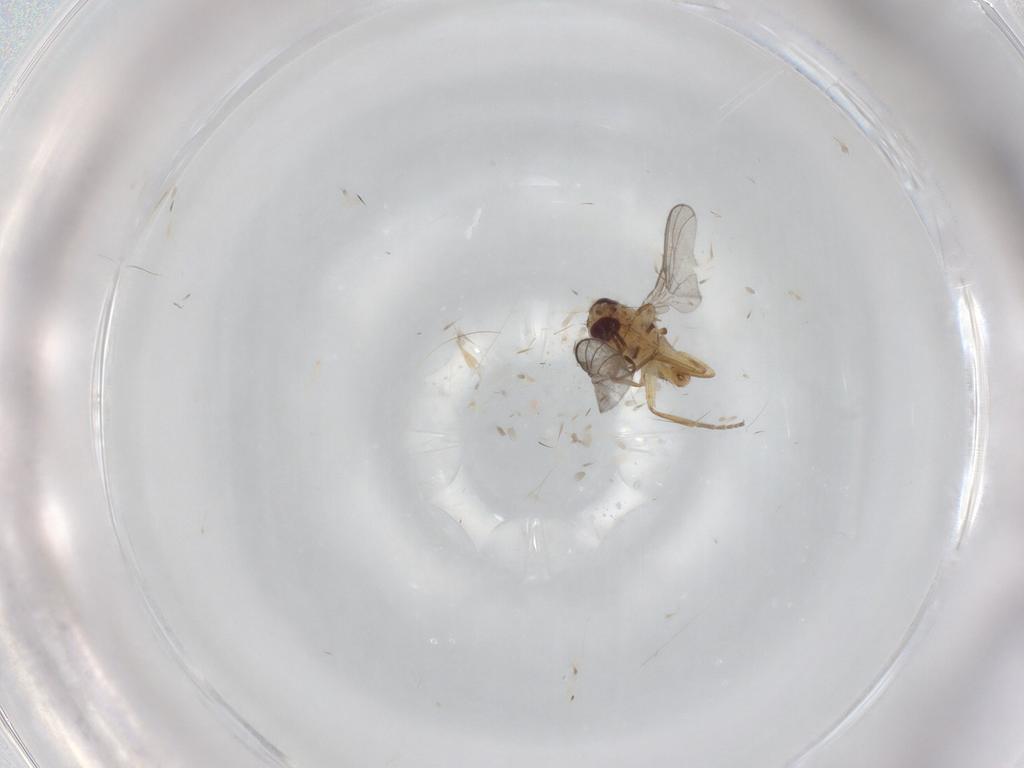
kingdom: Animalia
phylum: Arthropoda
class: Insecta
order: Diptera
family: Agromyzidae
